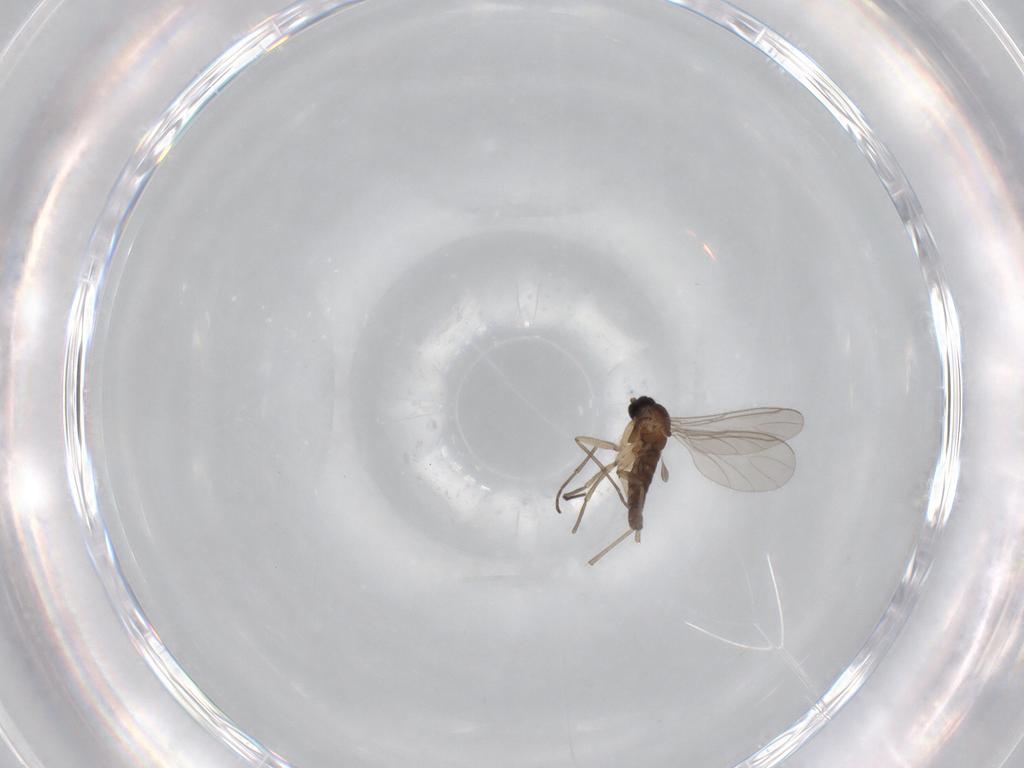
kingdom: Animalia
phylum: Arthropoda
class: Insecta
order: Diptera
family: Sciaridae
